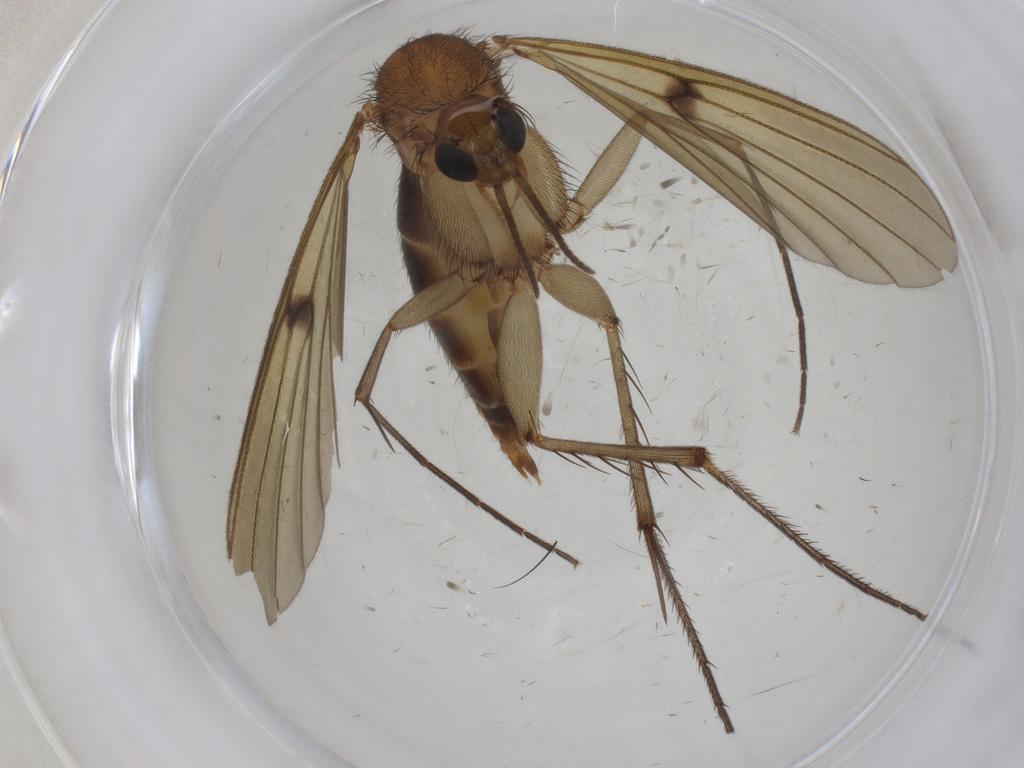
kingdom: Animalia
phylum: Arthropoda
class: Insecta
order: Diptera
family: Muscidae
